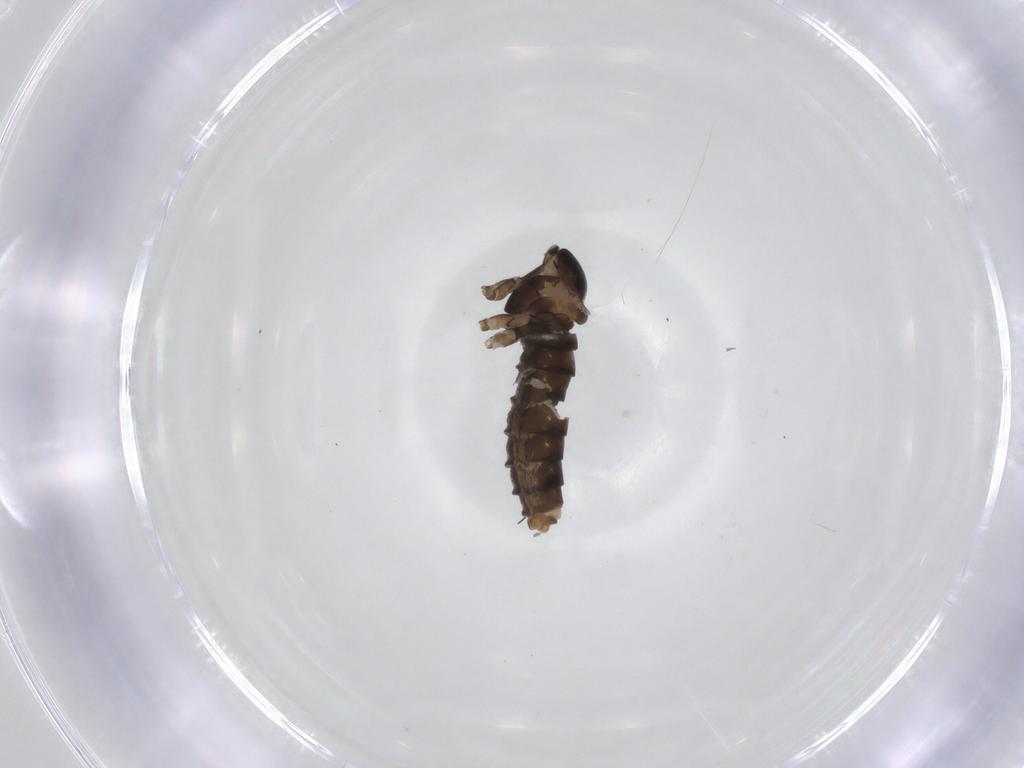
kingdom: Animalia
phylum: Arthropoda
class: Insecta
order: Diptera
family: Cecidomyiidae
